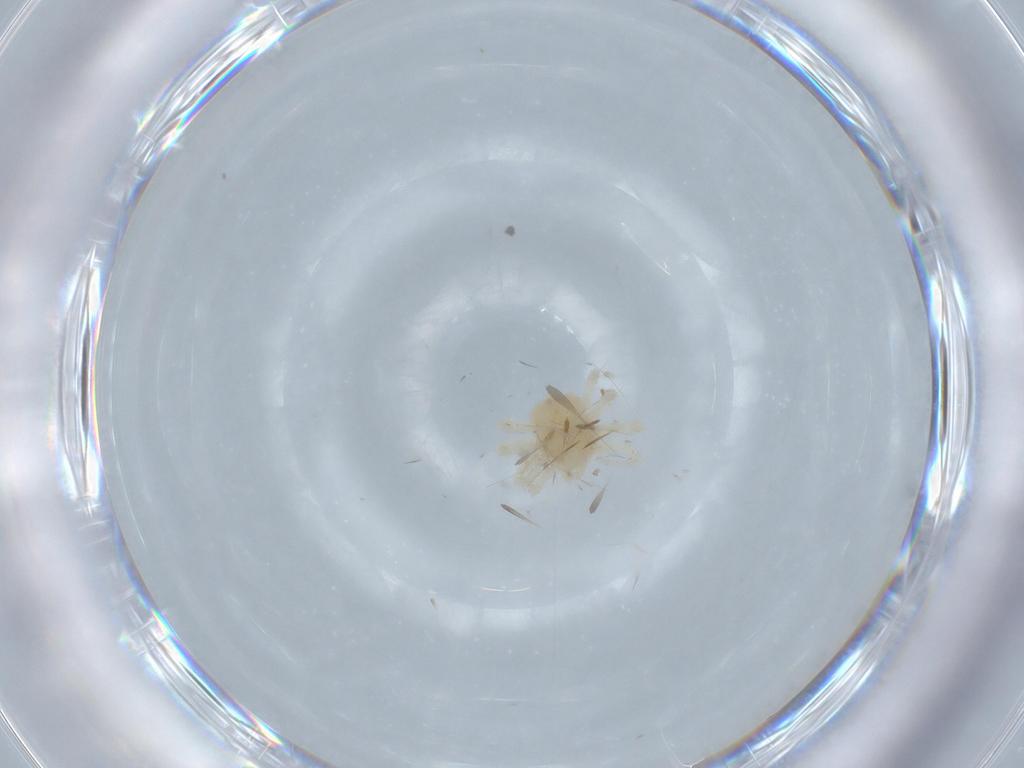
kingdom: Animalia
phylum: Arthropoda
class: Arachnida
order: Trombidiformes
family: Anystidae
